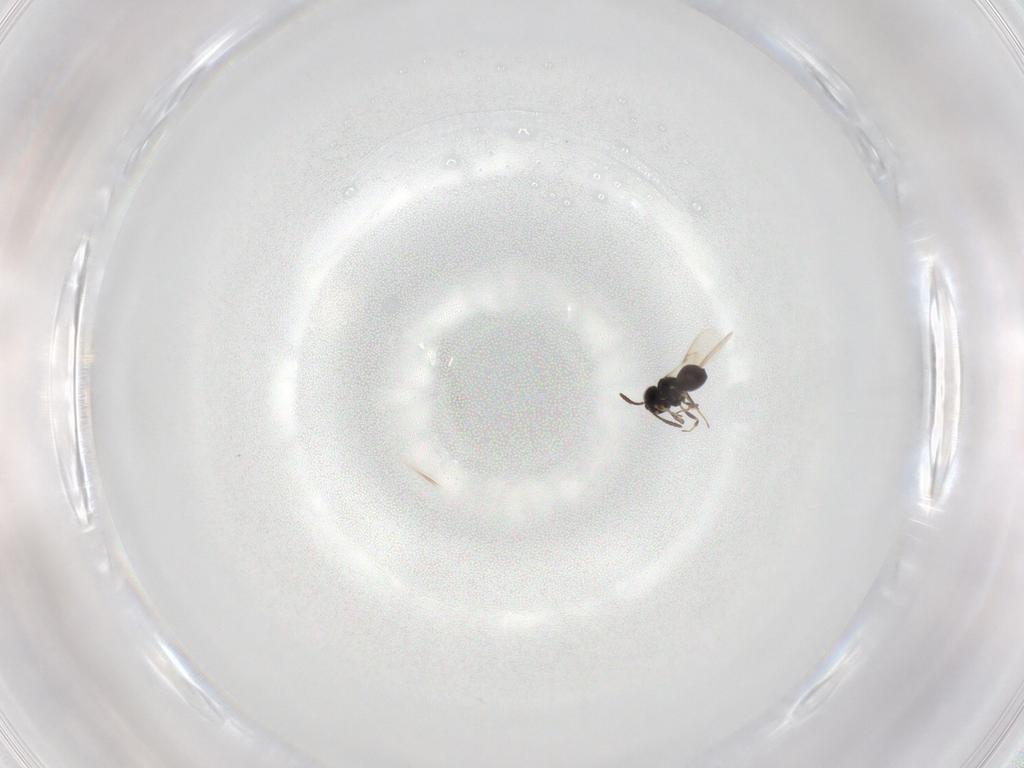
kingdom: Animalia
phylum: Arthropoda
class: Insecta
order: Hymenoptera
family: Scelionidae
